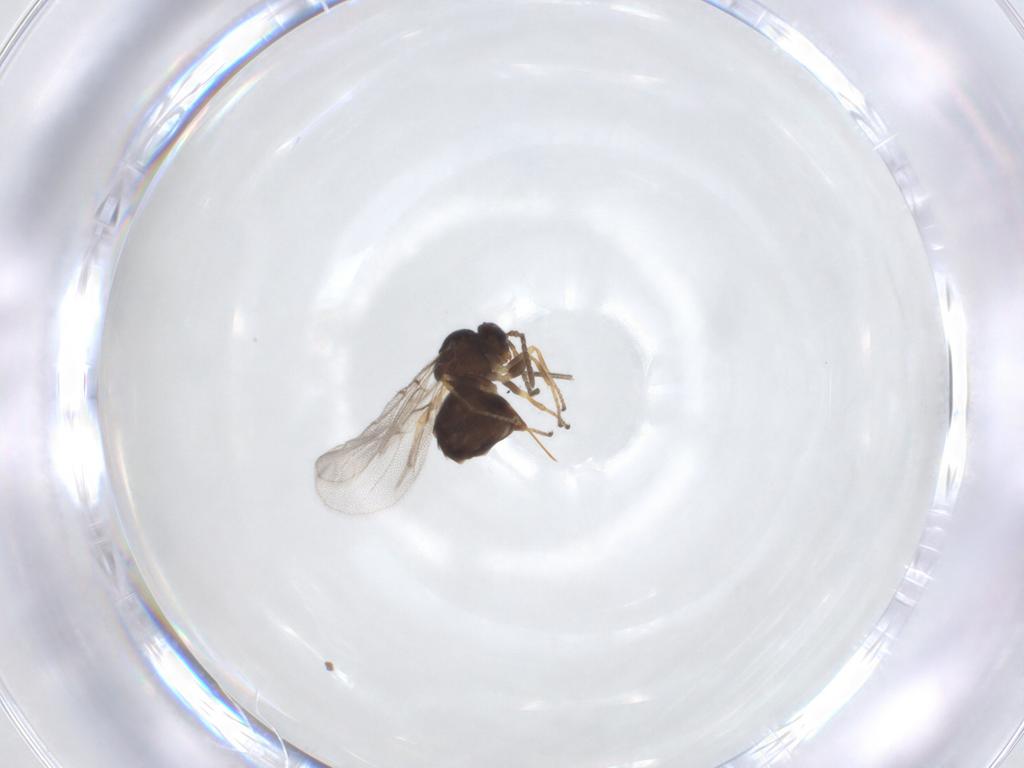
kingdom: Animalia
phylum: Arthropoda
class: Insecta
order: Hymenoptera
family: Cynipidae
